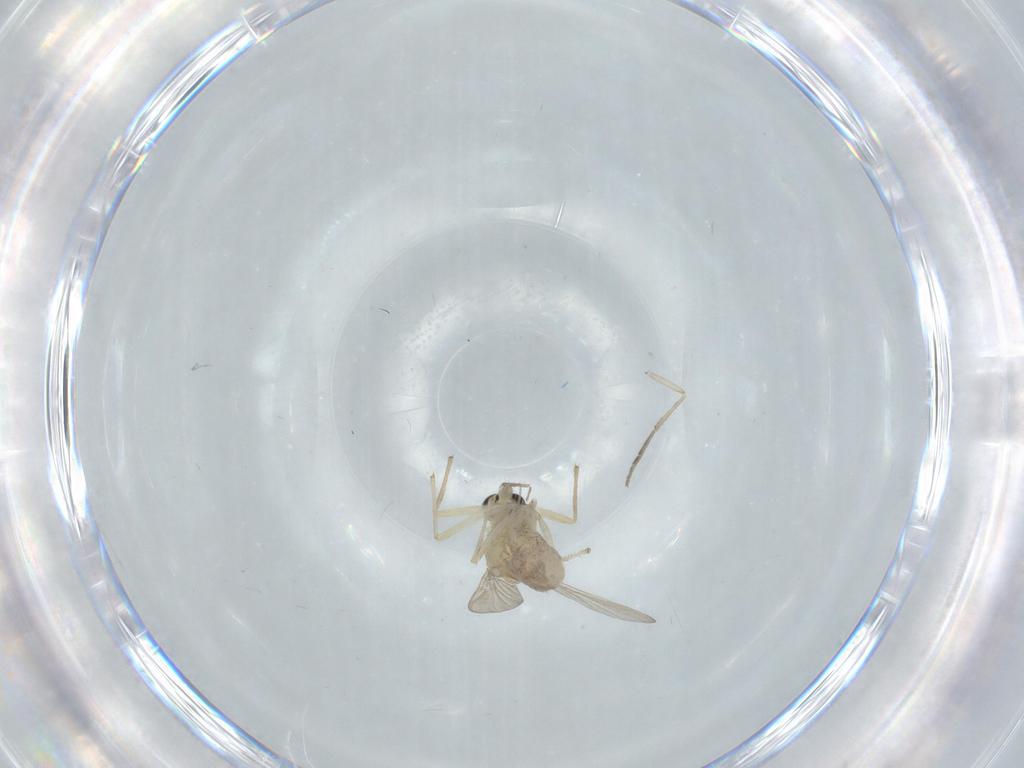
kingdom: Animalia
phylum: Arthropoda
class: Insecta
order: Diptera
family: Chironomidae
